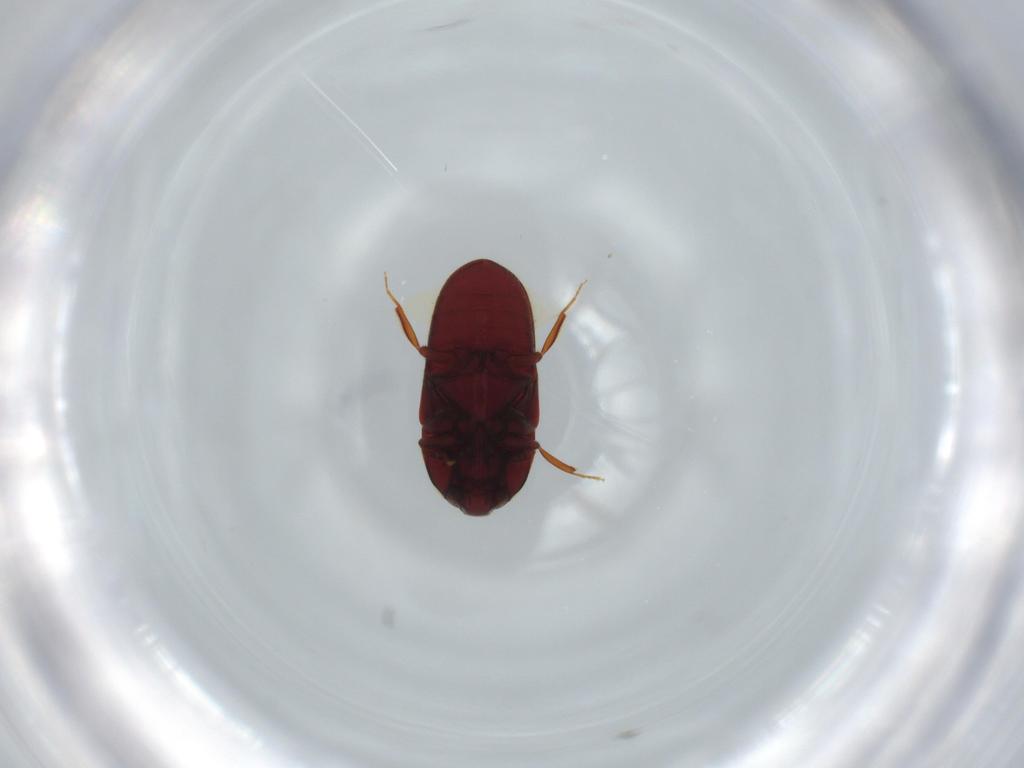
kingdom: Animalia
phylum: Arthropoda
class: Insecta
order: Coleoptera
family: Throscidae
